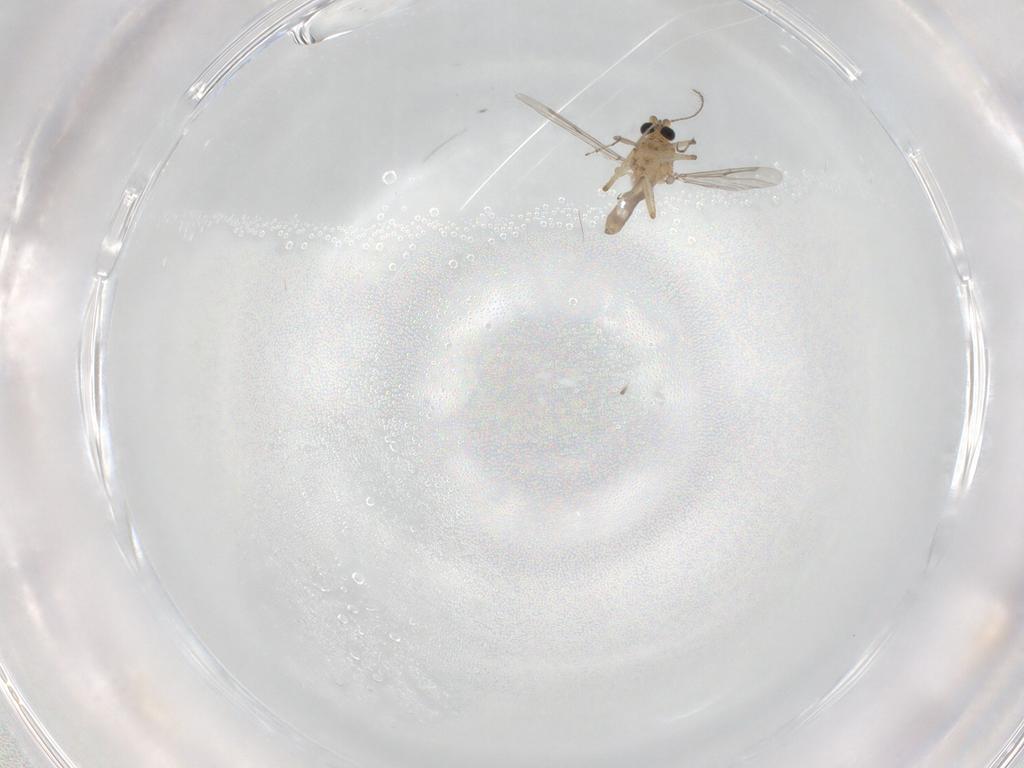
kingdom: Animalia
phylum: Arthropoda
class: Insecta
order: Diptera
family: Ceratopogonidae
